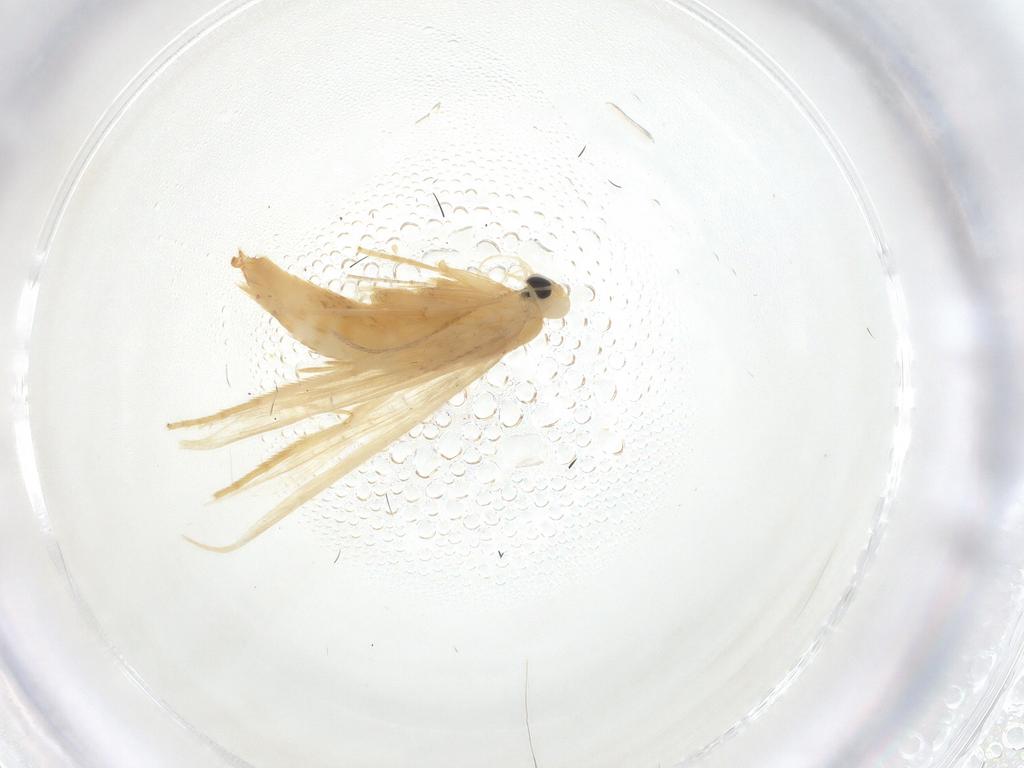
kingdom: Animalia
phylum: Arthropoda
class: Insecta
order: Lepidoptera
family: Tischeriidae
